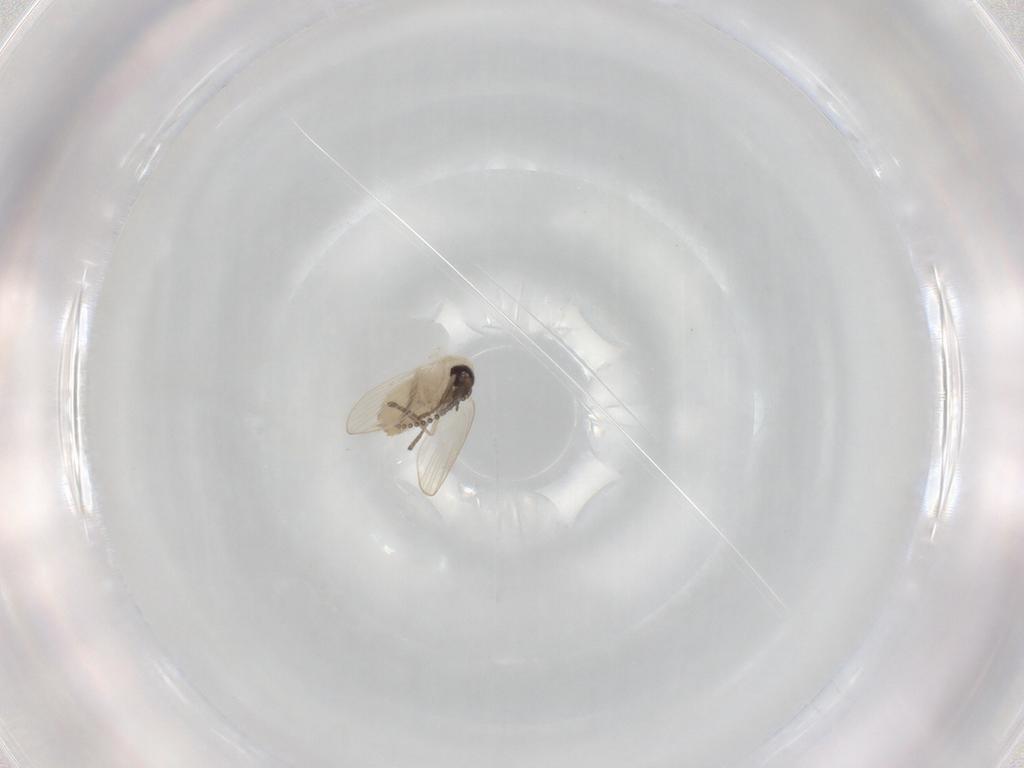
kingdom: Animalia
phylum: Arthropoda
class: Insecta
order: Diptera
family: Psychodidae
